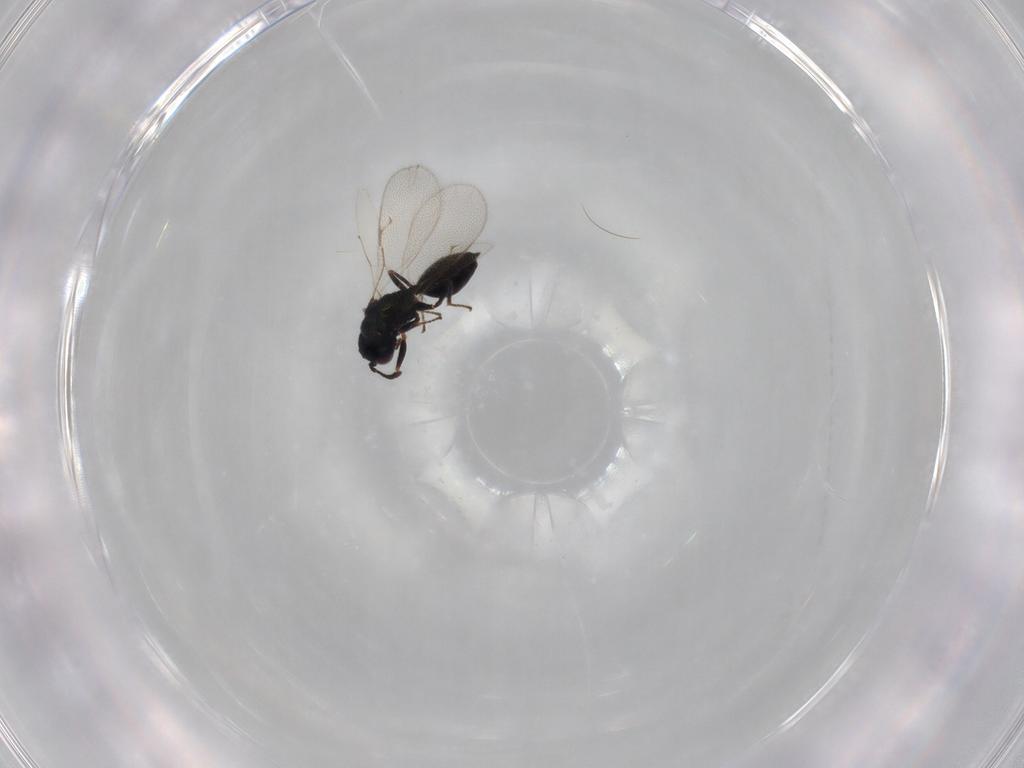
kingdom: Animalia
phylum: Arthropoda
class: Insecta
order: Hymenoptera
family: Pteromalidae
